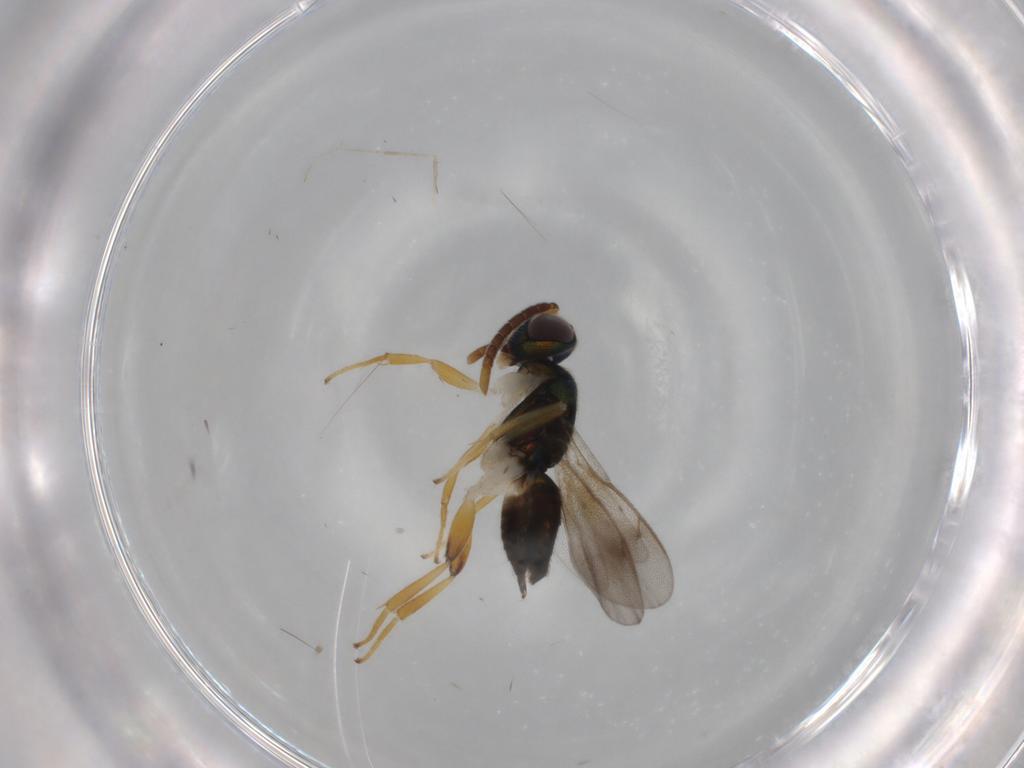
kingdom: Animalia
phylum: Arthropoda
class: Insecta
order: Hymenoptera
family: Eupelmidae
